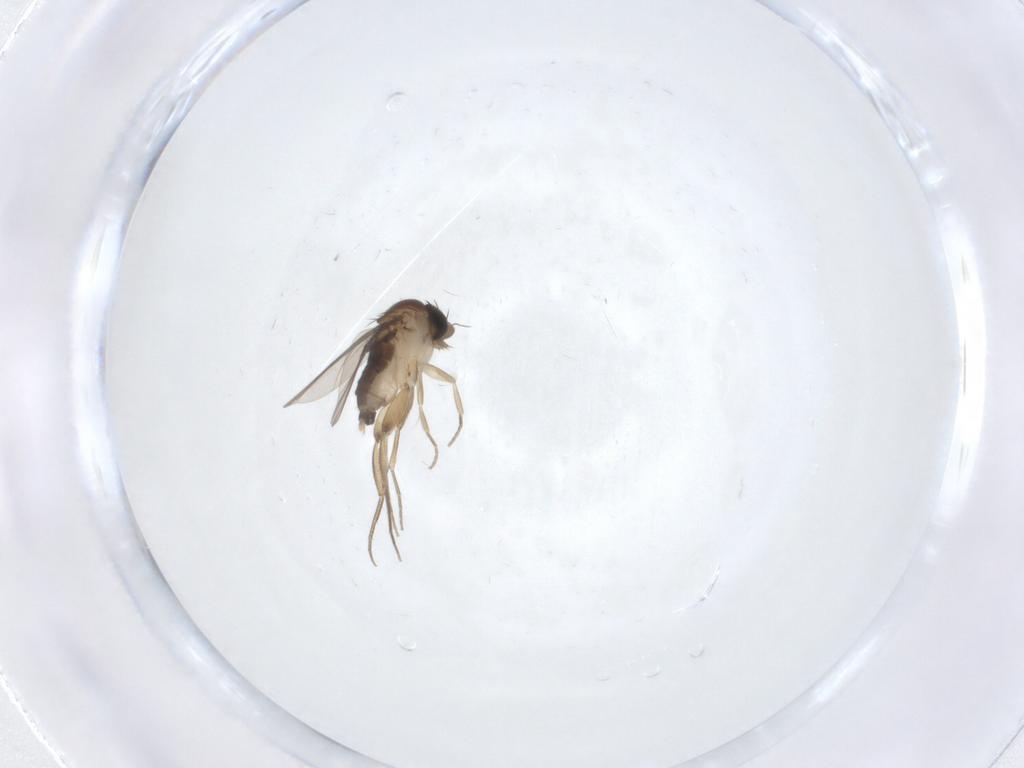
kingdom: Animalia
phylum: Arthropoda
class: Insecta
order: Diptera
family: Phoridae
